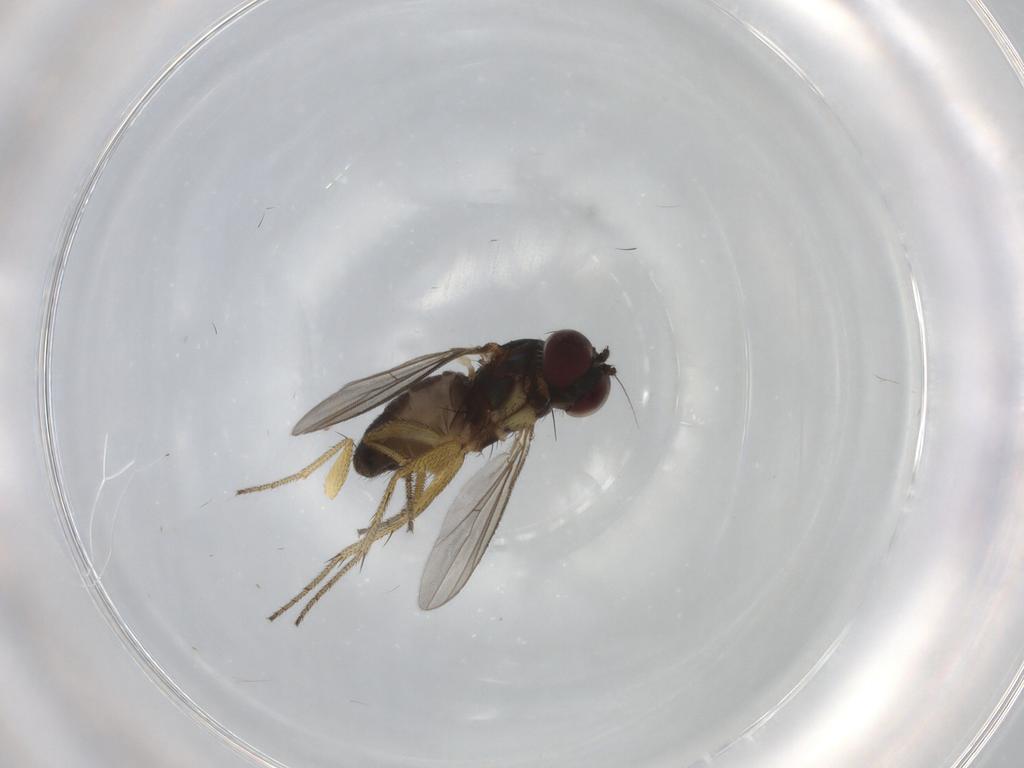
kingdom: Animalia
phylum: Arthropoda
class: Insecta
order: Diptera
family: Dolichopodidae
